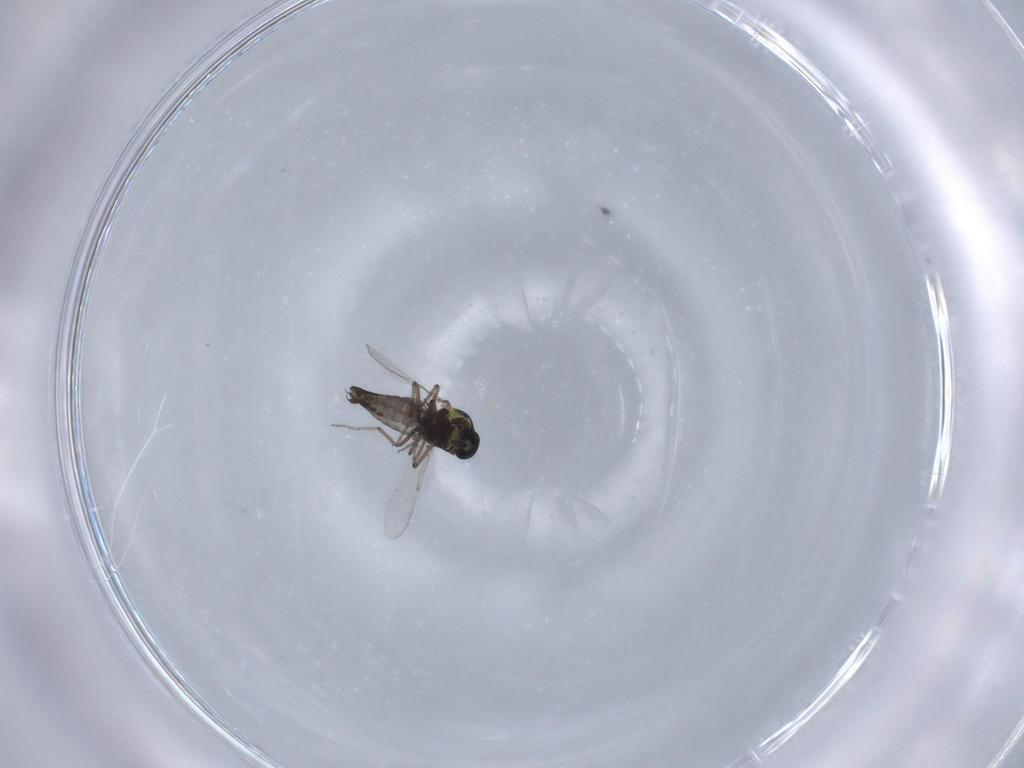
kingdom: Animalia
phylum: Arthropoda
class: Insecta
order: Diptera
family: Ceratopogonidae
